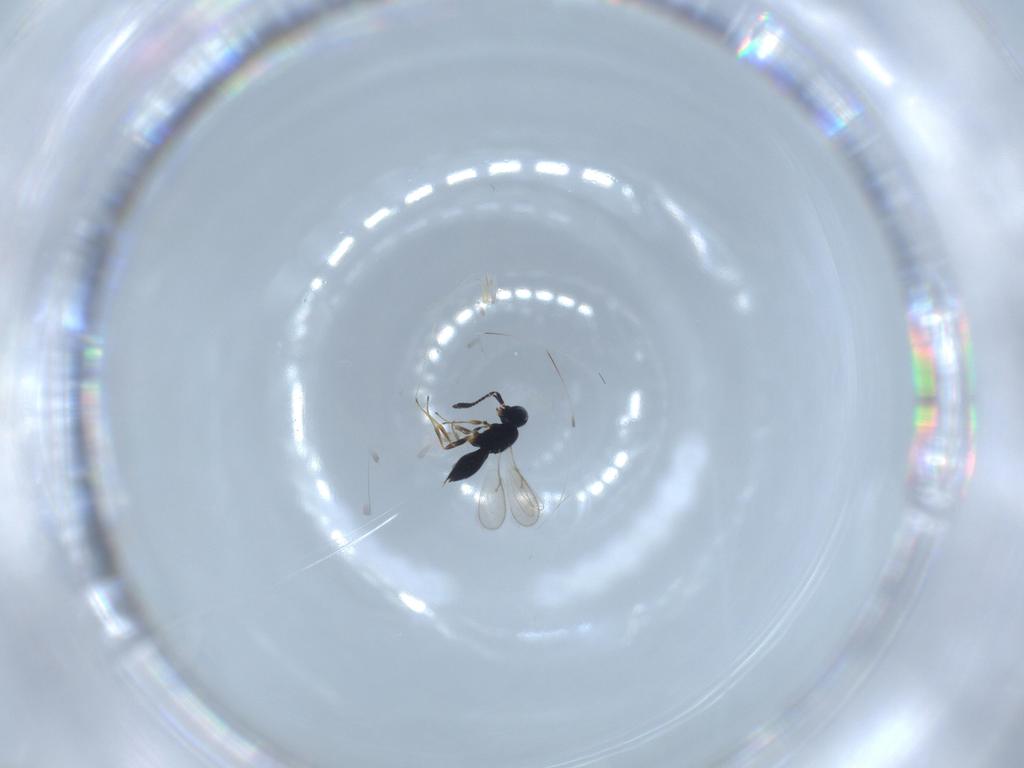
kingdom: Animalia
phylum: Arthropoda
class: Insecta
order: Hymenoptera
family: Scelionidae
